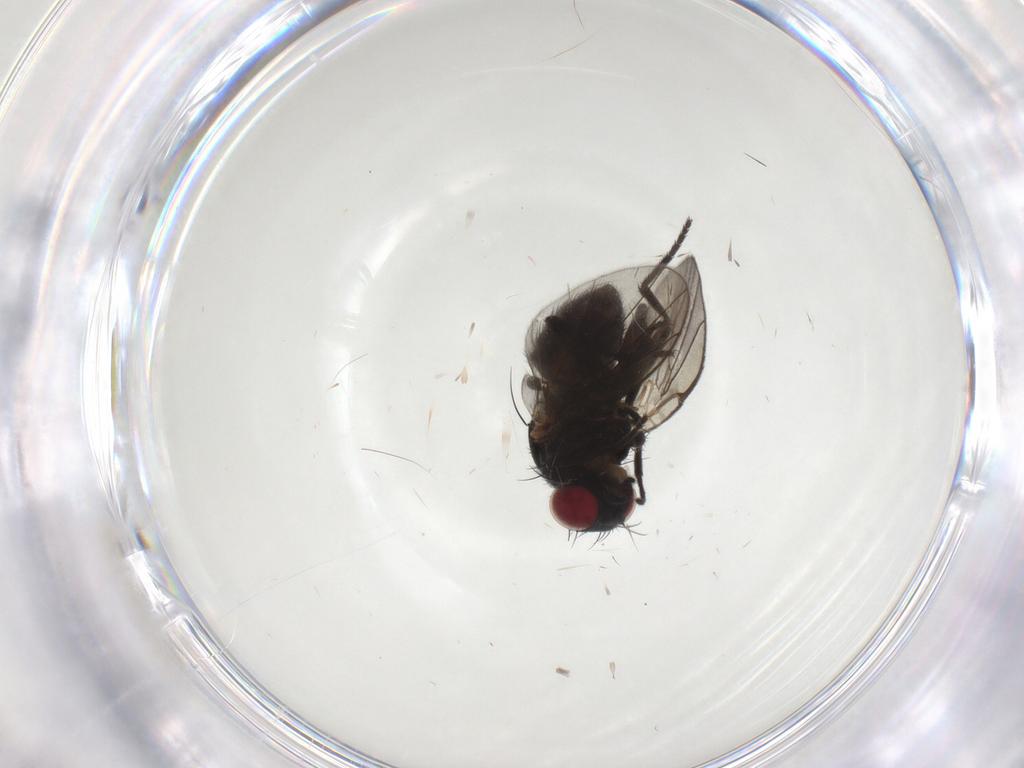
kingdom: Animalia
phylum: Arthropoda
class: Insecta
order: Diptera
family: Agromyzidae
